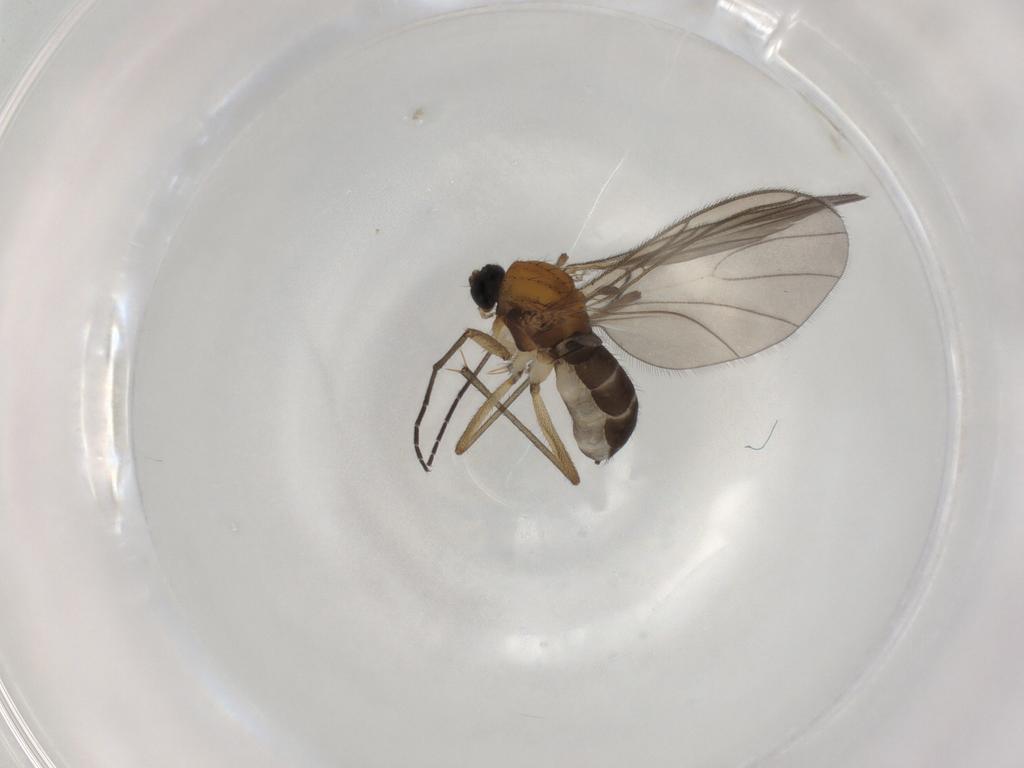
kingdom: Animalia
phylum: Arthropoda
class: Insecta
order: Diptera
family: Sciaridae
